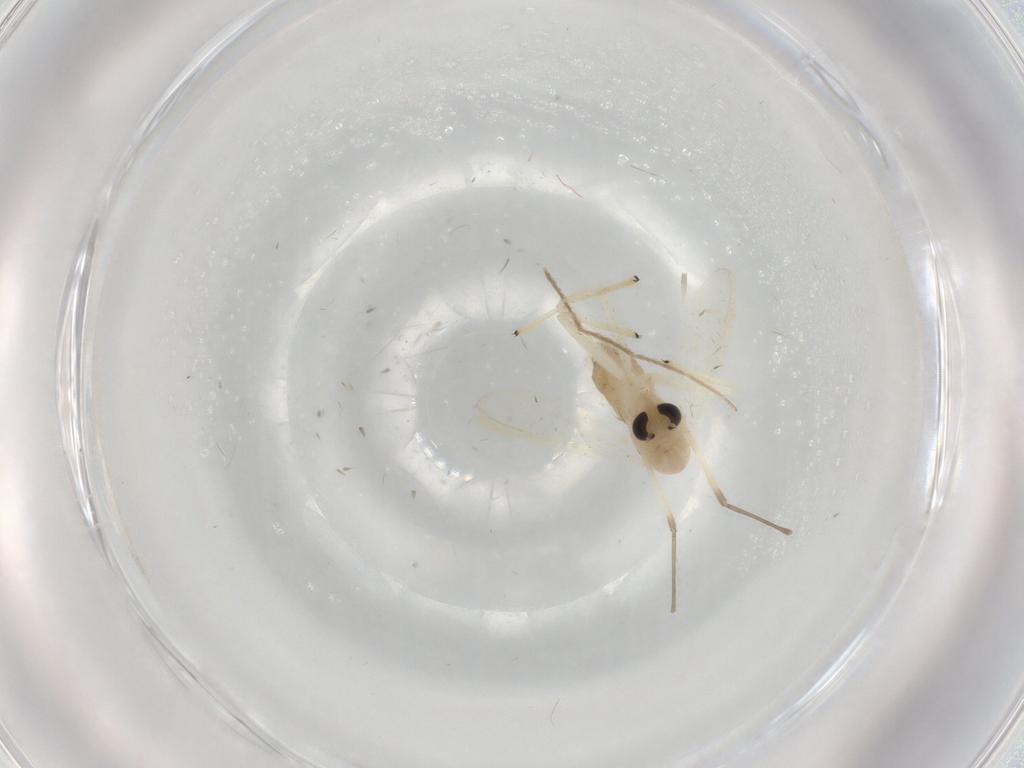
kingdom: Animalia
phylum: Arthropoda
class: Insecta
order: Diptera
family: Chironomidae
